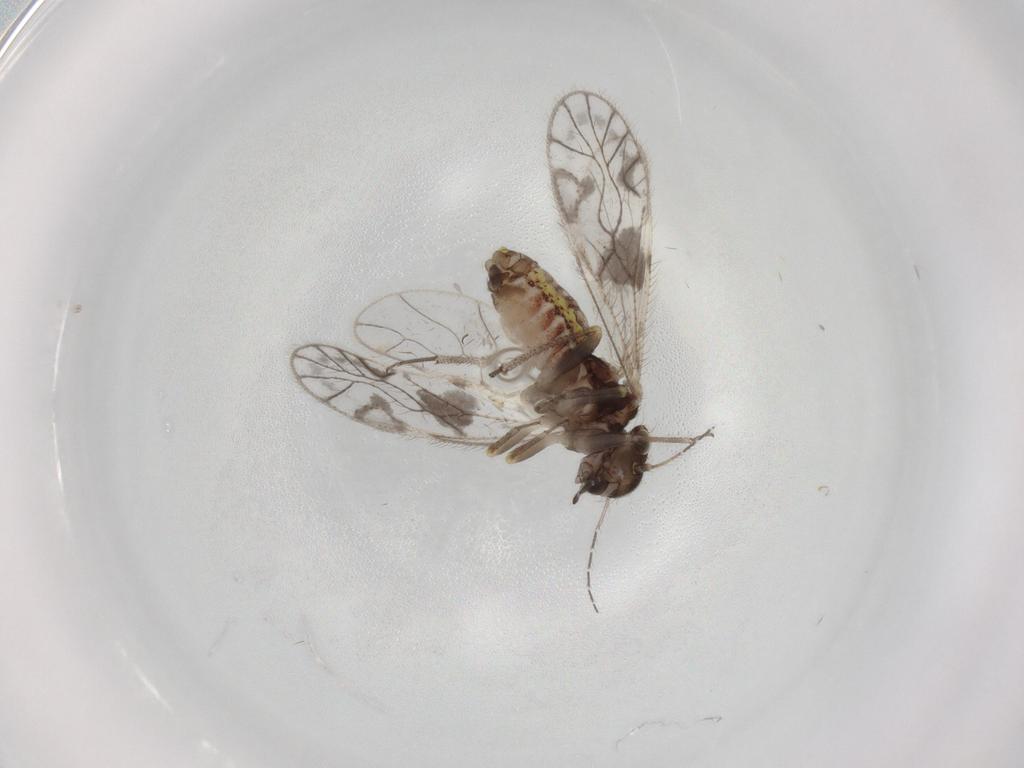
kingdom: Animalia
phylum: Arthropoda
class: Insecta
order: Psocodea
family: Cladiopsocidae
